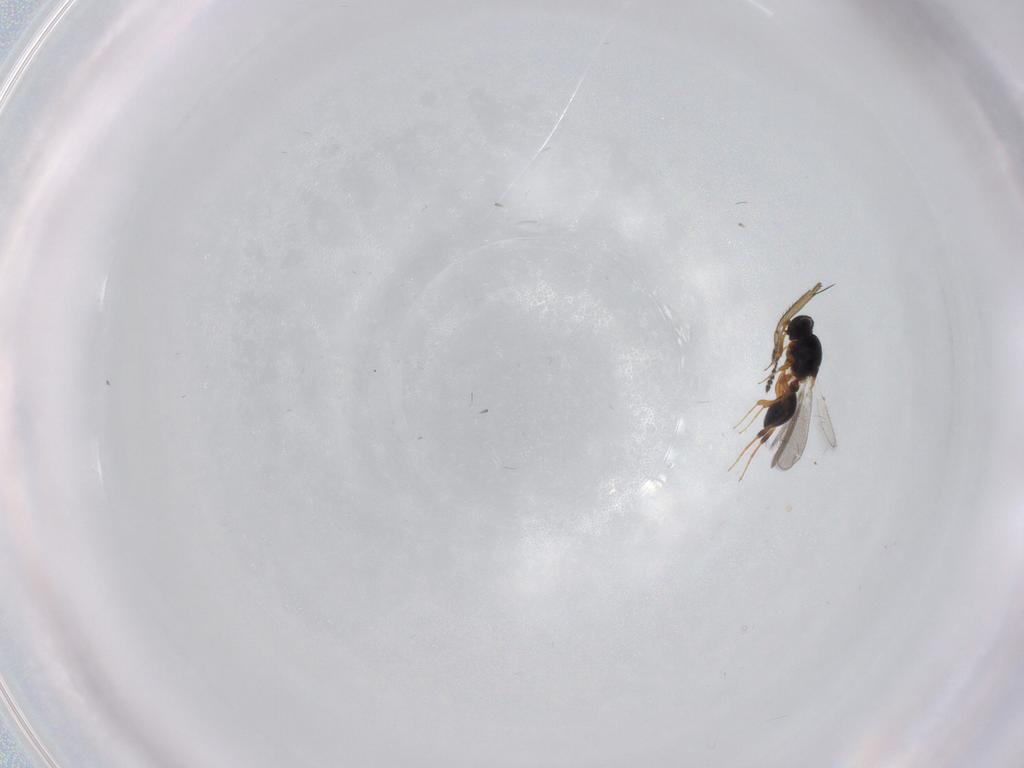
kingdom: Animalia
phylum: Arthropoda
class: Insecta
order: Hymenoptera
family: Platygastridae
